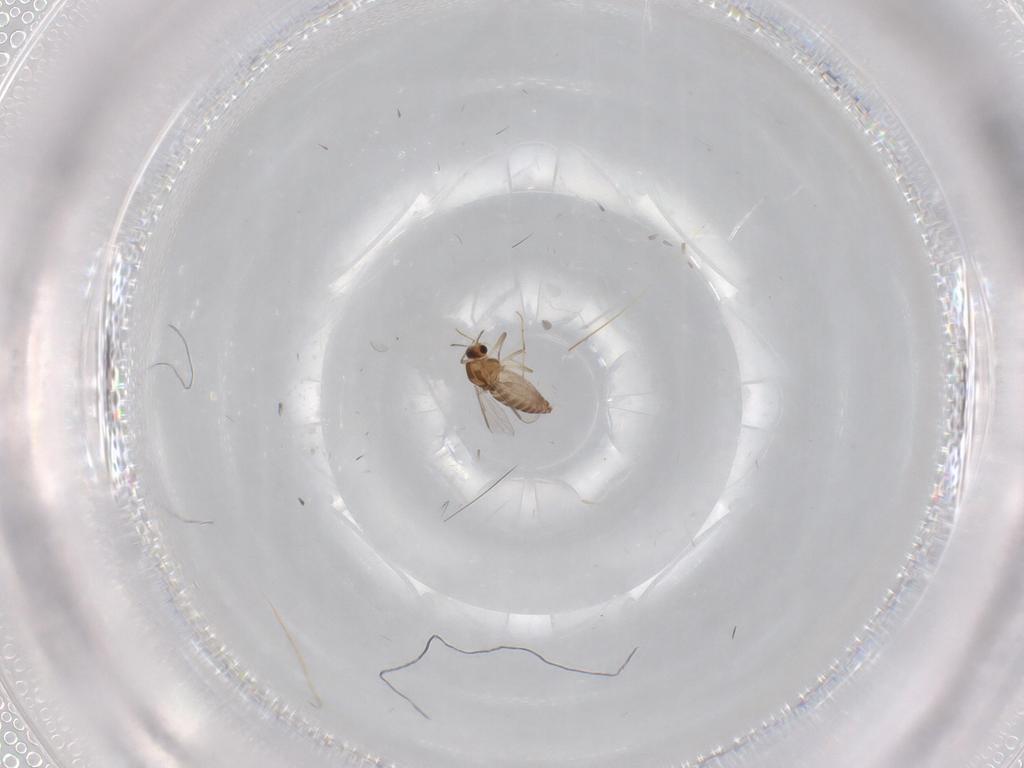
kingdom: Animalia
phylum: Arthropoda
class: Insecta
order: Diptera
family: Chironomidae
